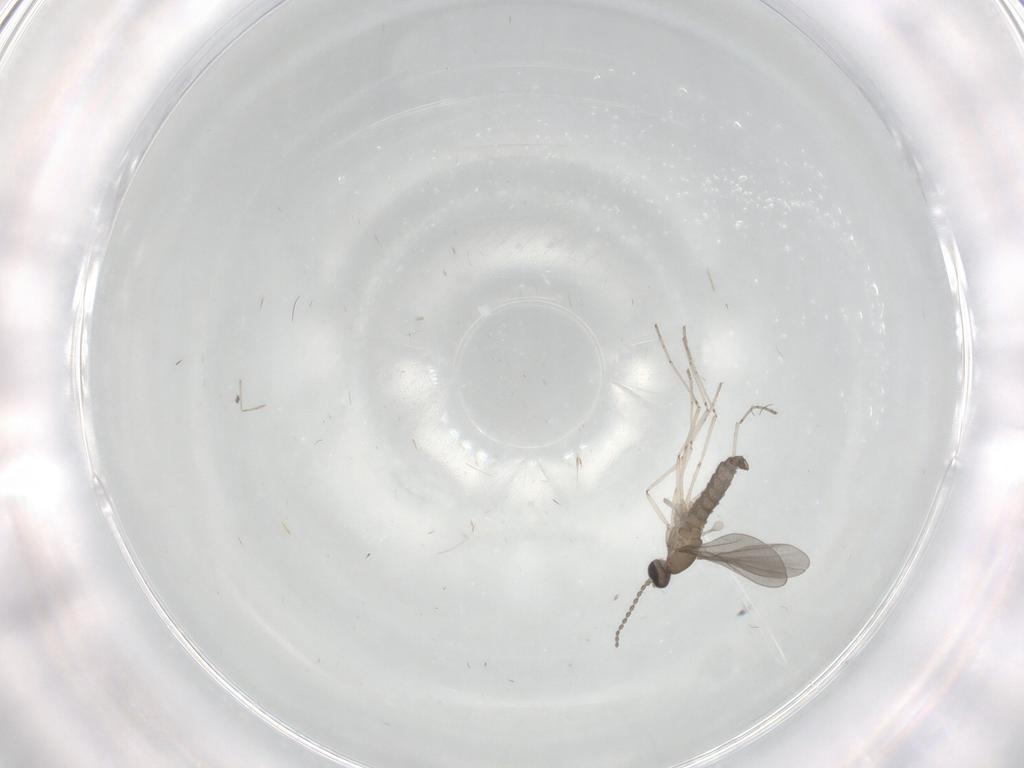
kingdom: Animalia
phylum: Arthropoda
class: Insecta
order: Diptera
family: Cecidomyiidae
